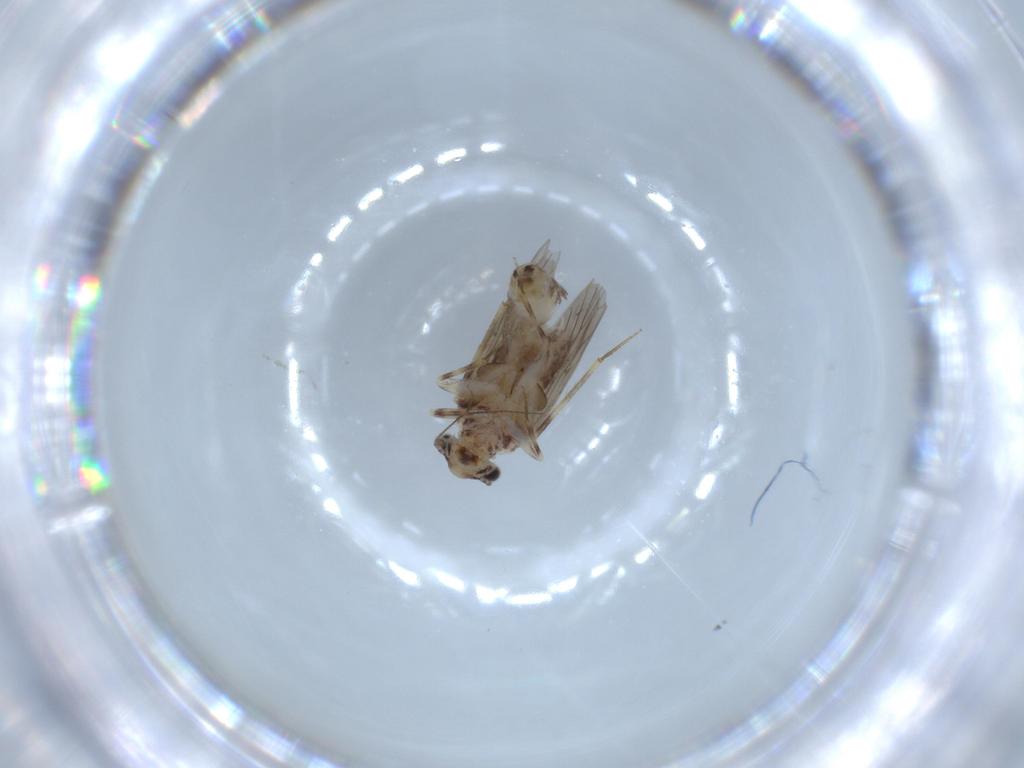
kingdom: Animalia
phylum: Arthropoda
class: Insecta
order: Psocodea
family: Lepidopsocidae
